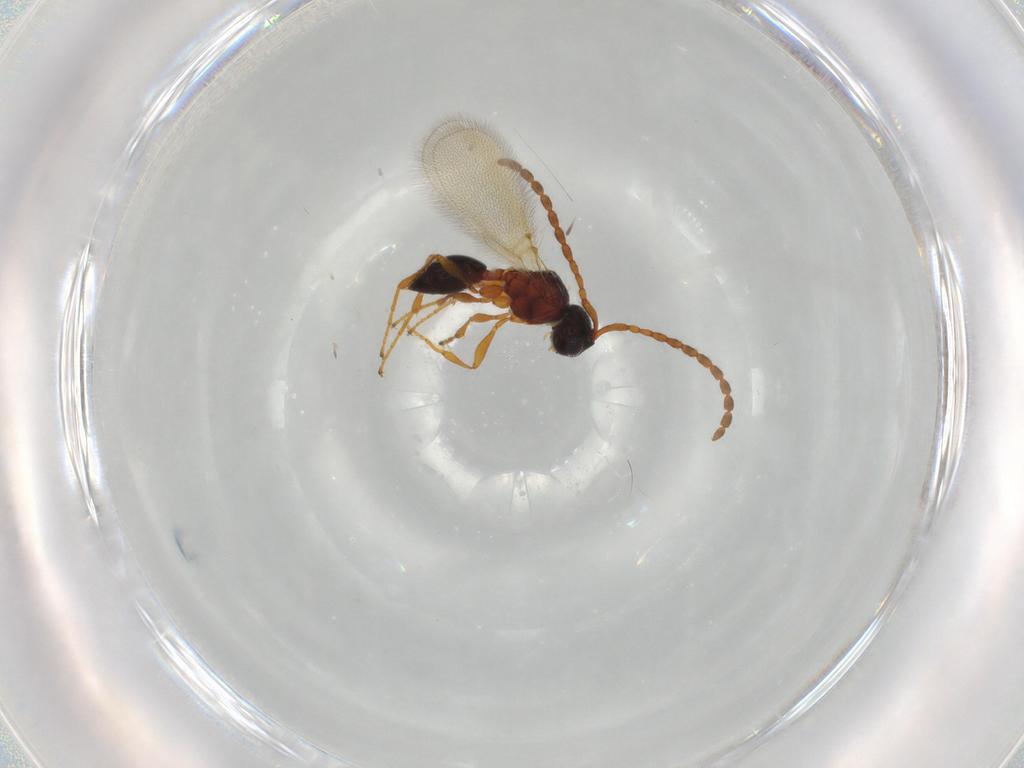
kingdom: Animalia
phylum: Arthropoda
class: Insecta
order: Hymenoptera
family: Diapriidae
